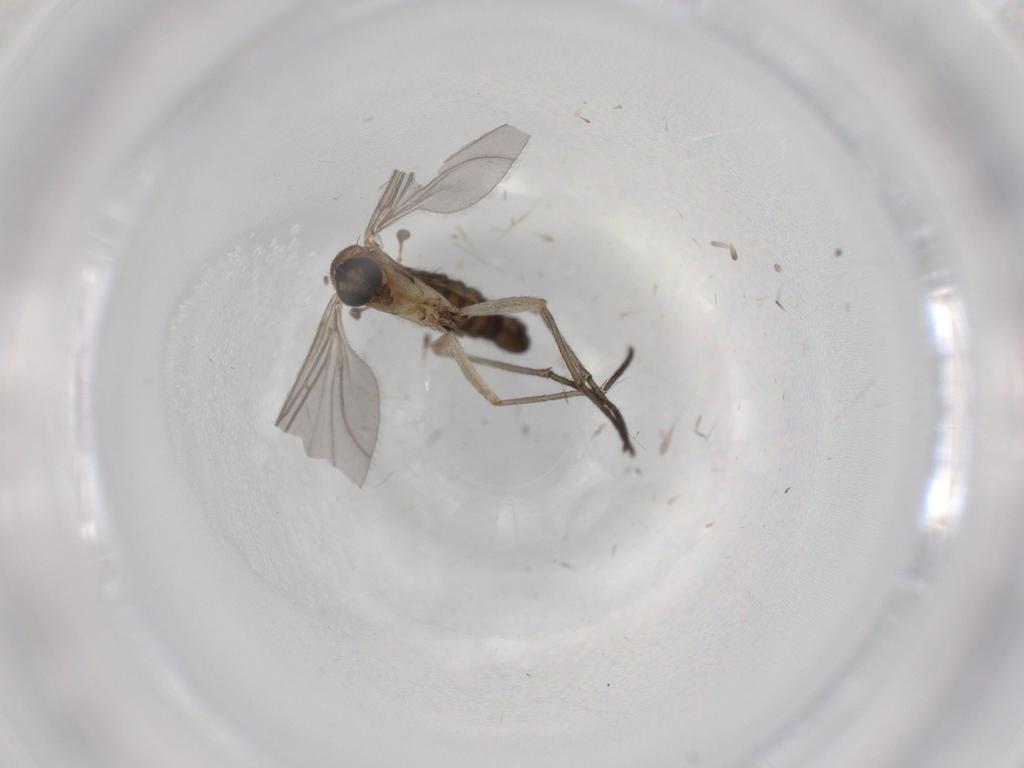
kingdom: Animalia
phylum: Arthropoda
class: Insecta
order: Diptera
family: Sciaridae
